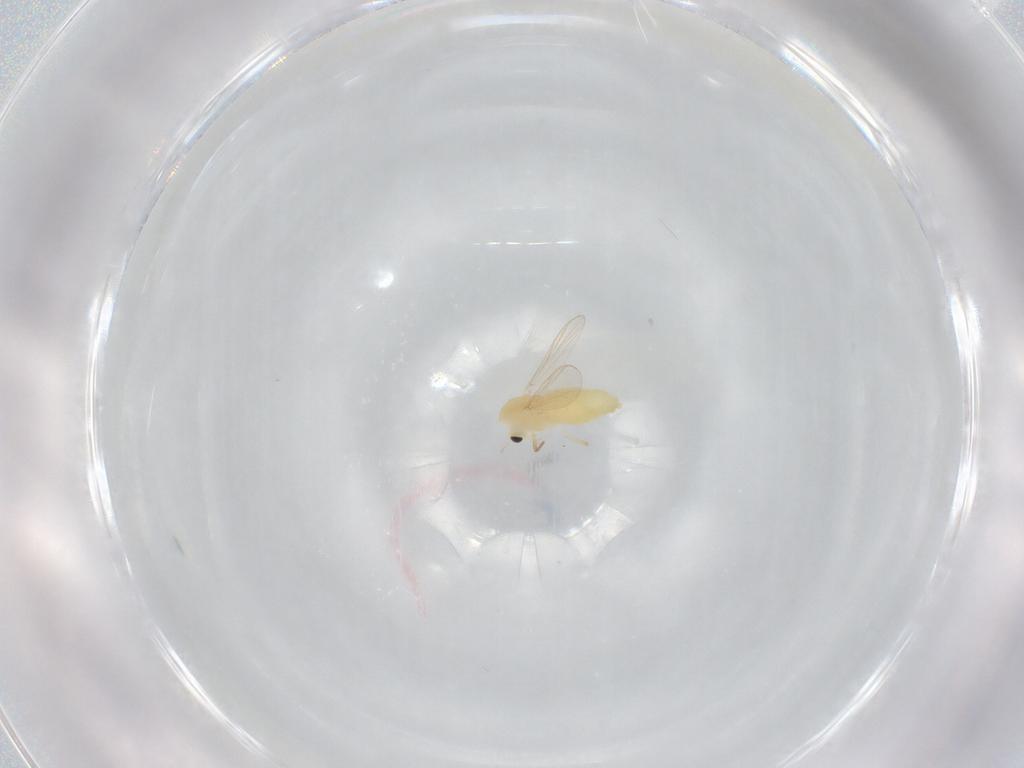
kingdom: Animalia
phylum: Arthropoda
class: Insecta
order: Diptera
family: Chironomidae
